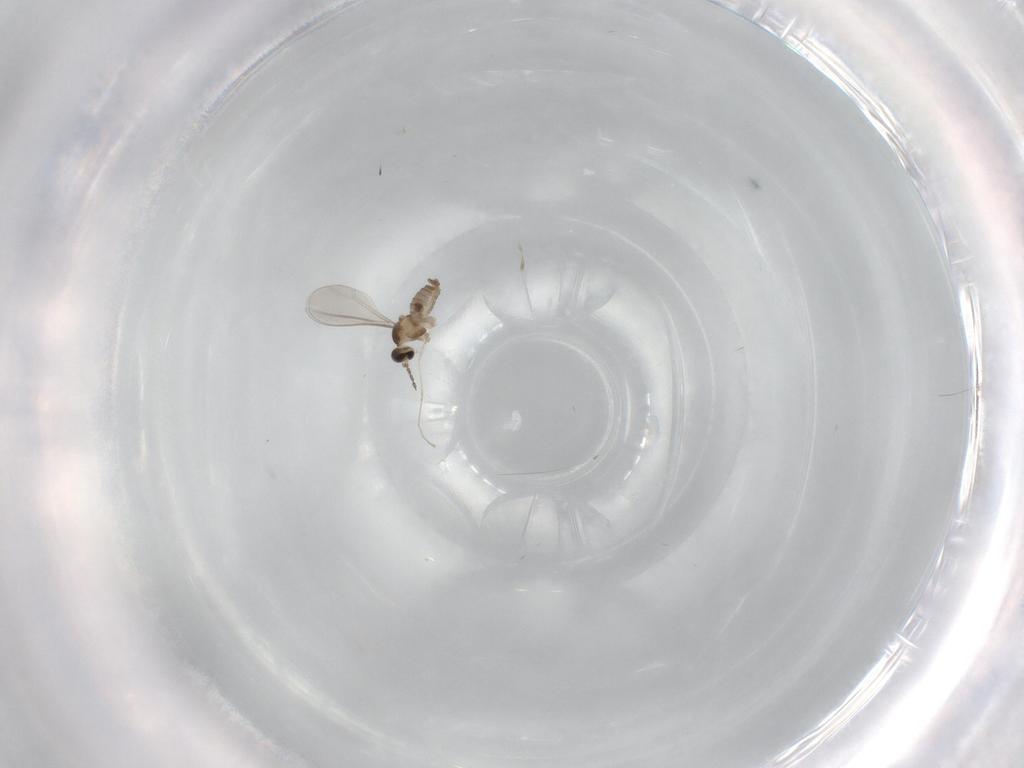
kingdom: Animalia
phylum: Arthropoda
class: Insecta
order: Diptera
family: Cecidomyiidae
